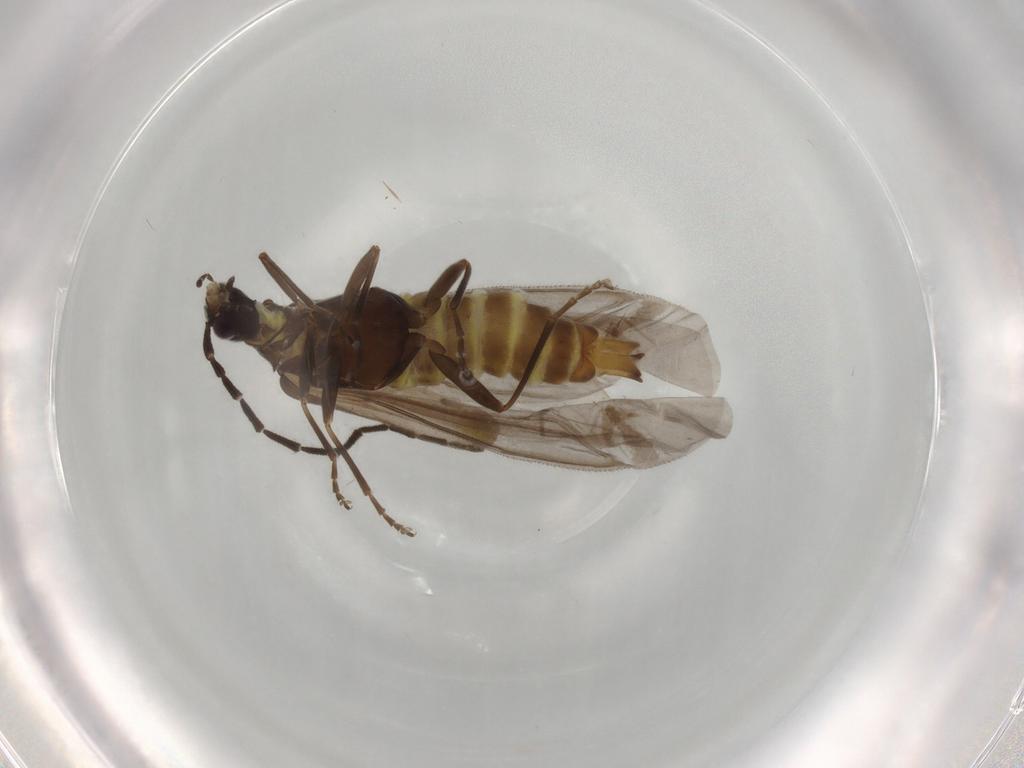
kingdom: Animalia
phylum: Arthropoda
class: Insecta
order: Coleoptera
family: Cantharidae
